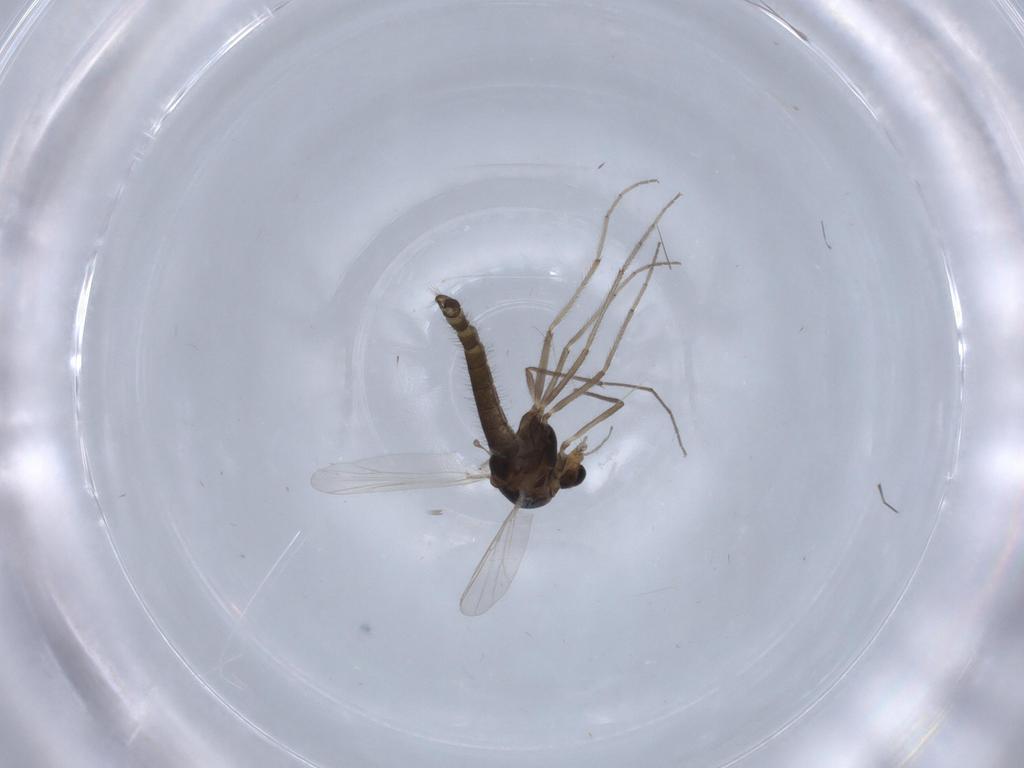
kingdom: Animalia
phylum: Arthropoda
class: Insecta
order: Diptera
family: Chironomidae
